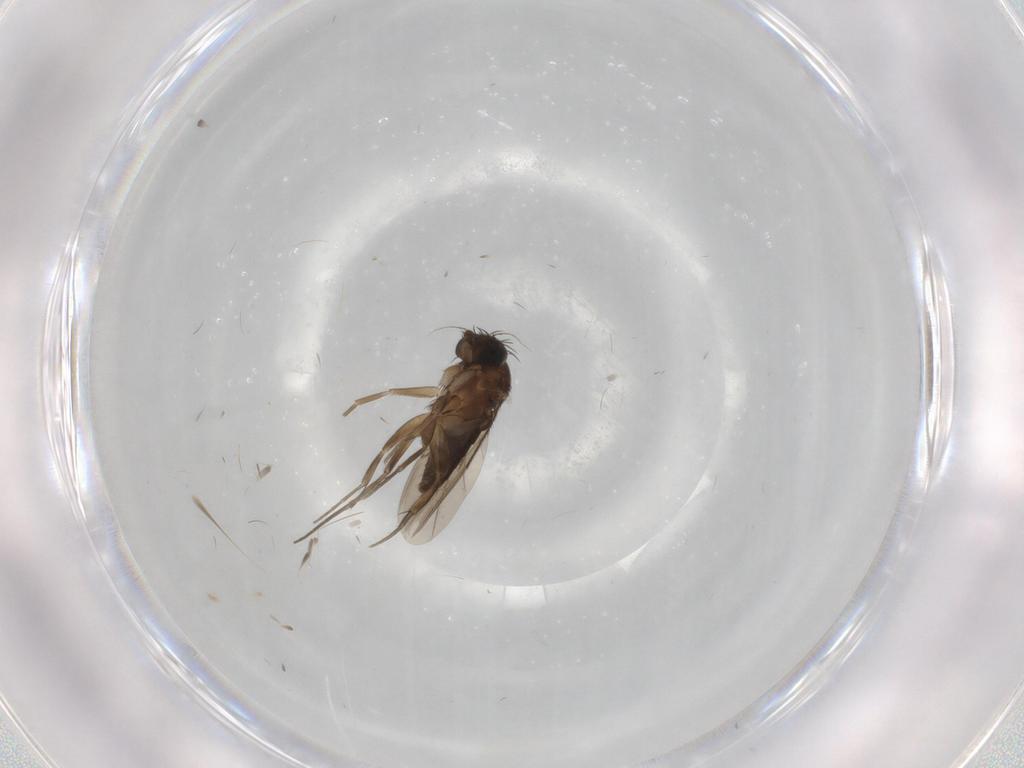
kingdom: Animalia
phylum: Arthropoda
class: Insecta
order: Diptera
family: Phoridae
